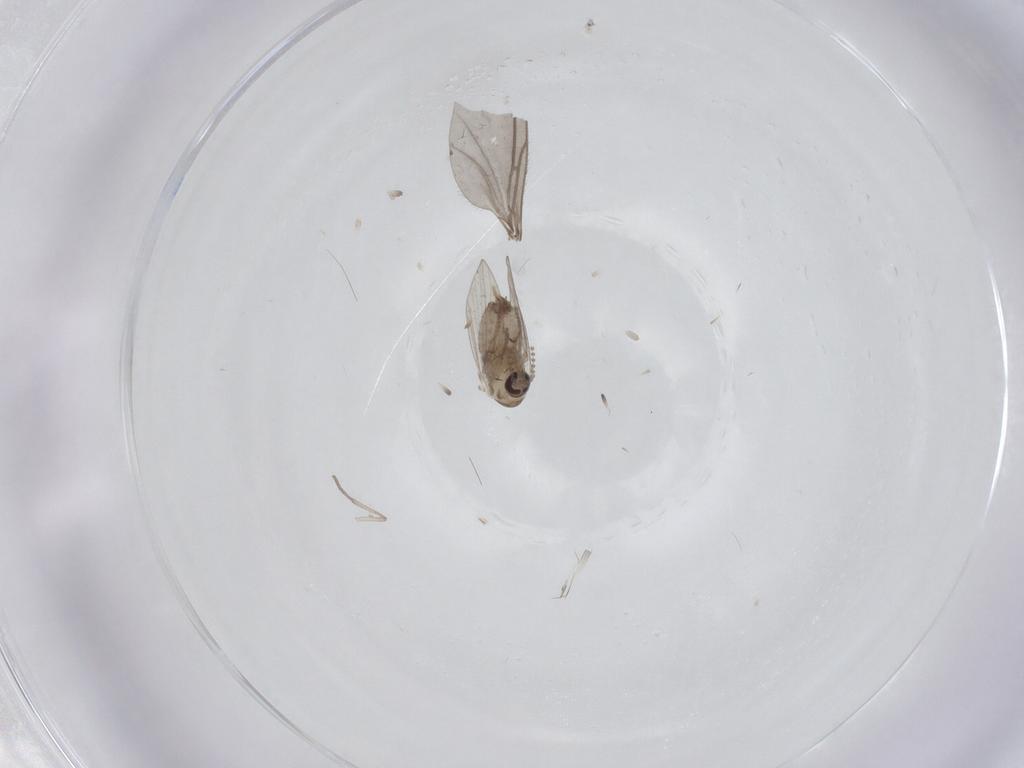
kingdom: Animalia
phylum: Arthropoda
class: Insecta
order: Diptera
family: Psychodidae
